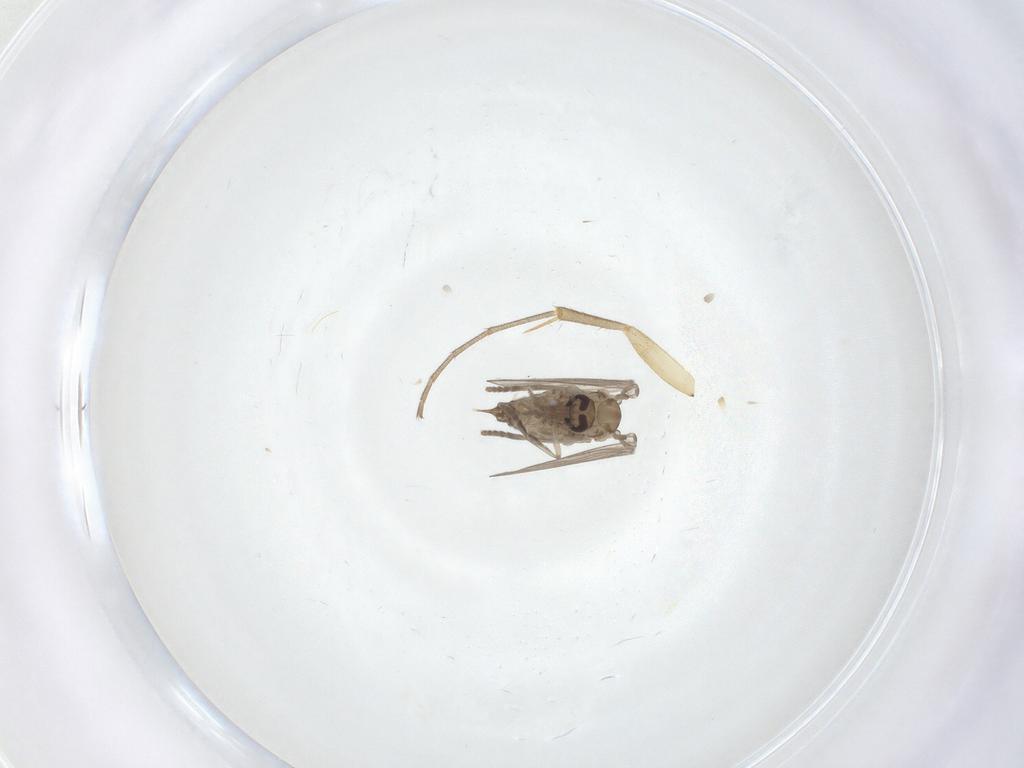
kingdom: Animalia
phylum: Arthropoda
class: Insecta
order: Diptera
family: Psychodidae
